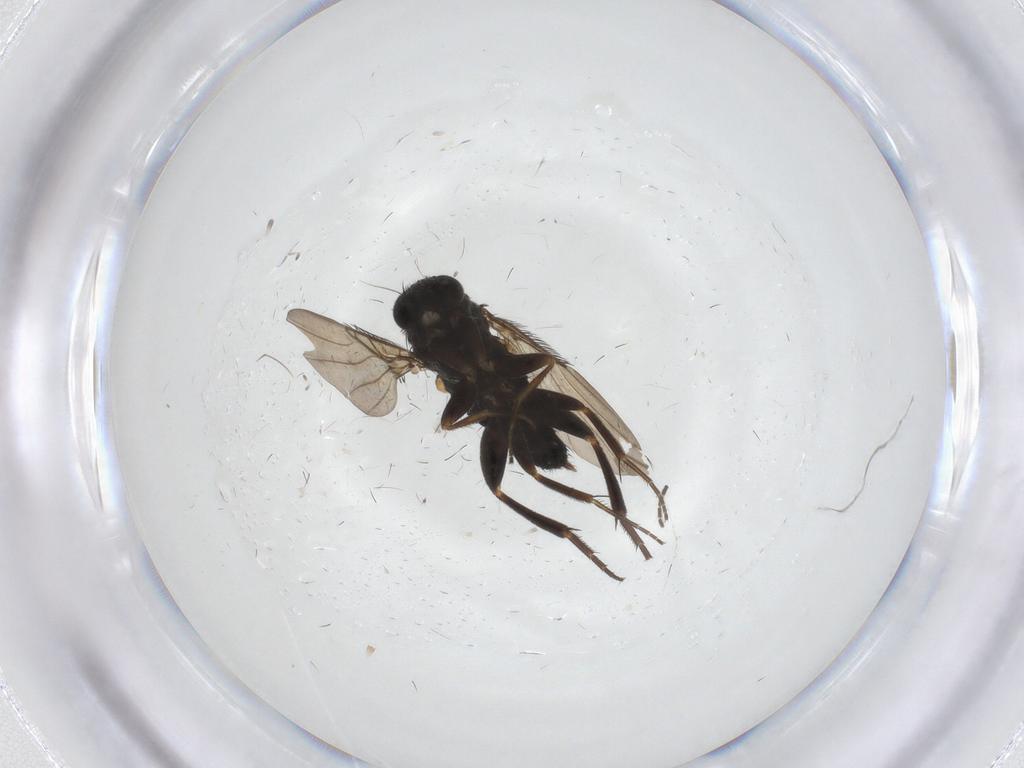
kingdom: Animalia
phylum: Arthropoda
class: Insecta
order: Diptera
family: Phoridae
